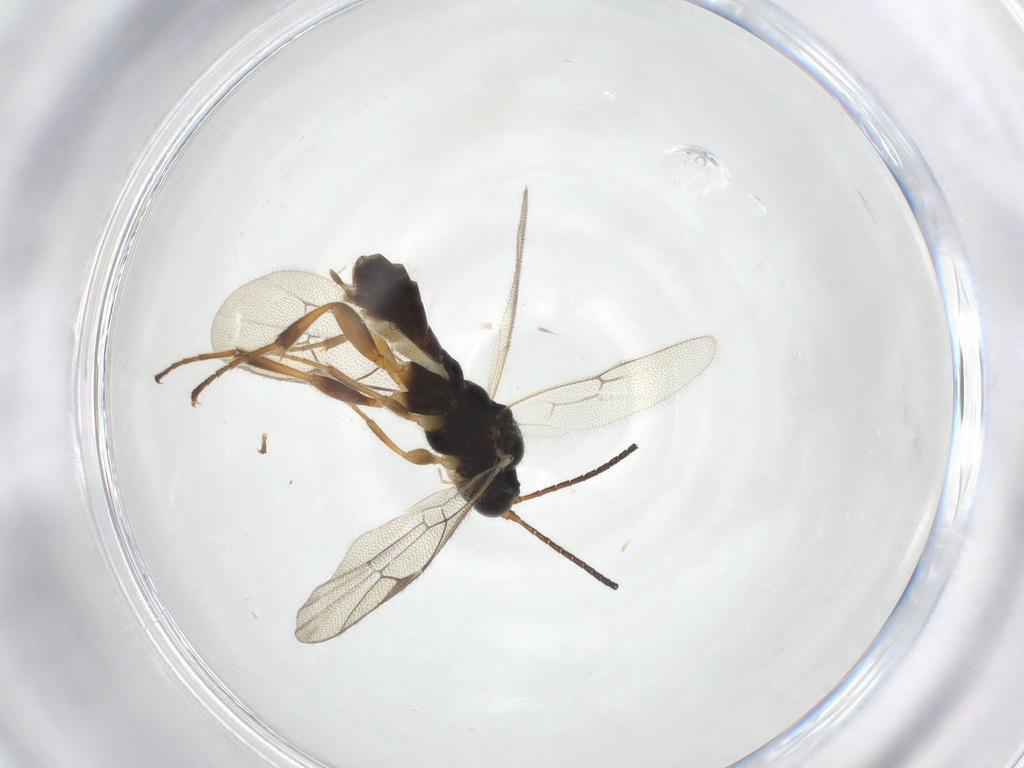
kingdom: Animalia
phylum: Arthropoda
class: Insecta
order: Hymenoptera
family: Ichneumonidae
